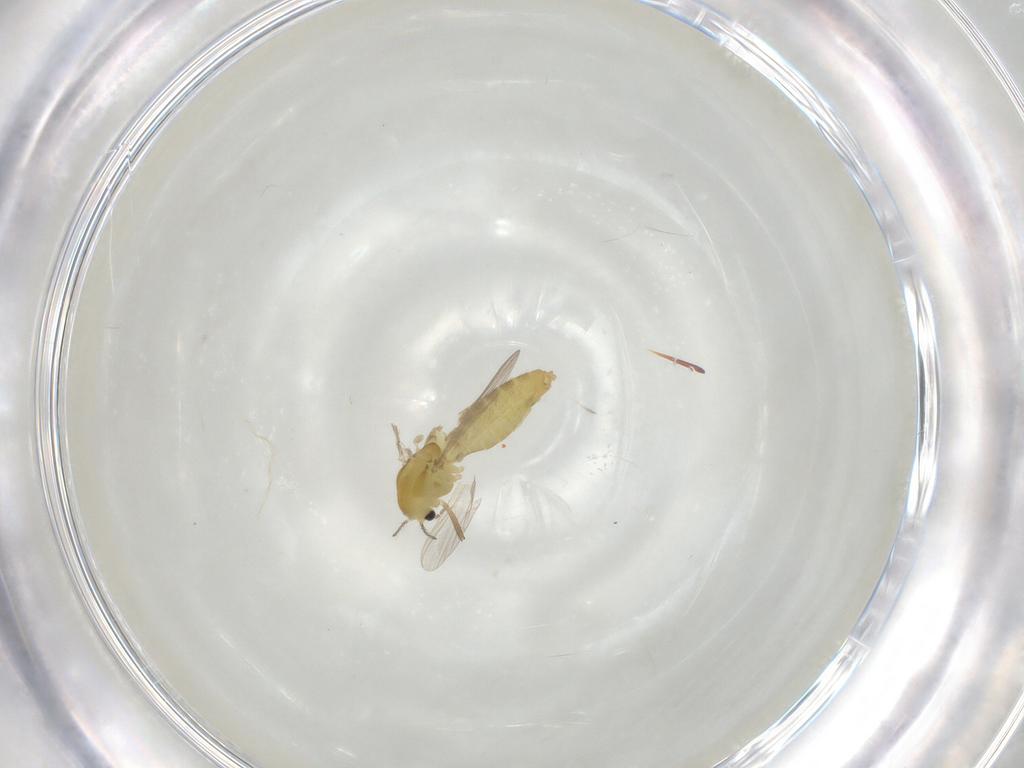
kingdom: Animalia
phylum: Arthropoda
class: Insecta
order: Diptera
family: Chironomidae
